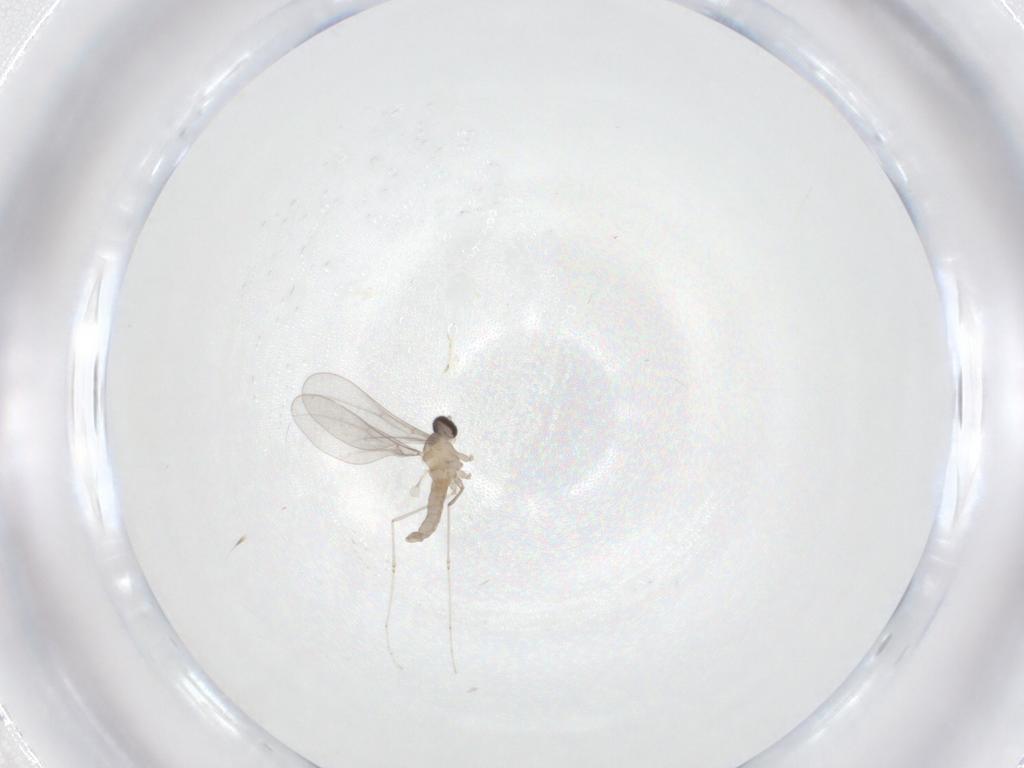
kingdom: Animalia
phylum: Arthropoda
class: Insecta
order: Diptera
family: Cecidomyiidae
